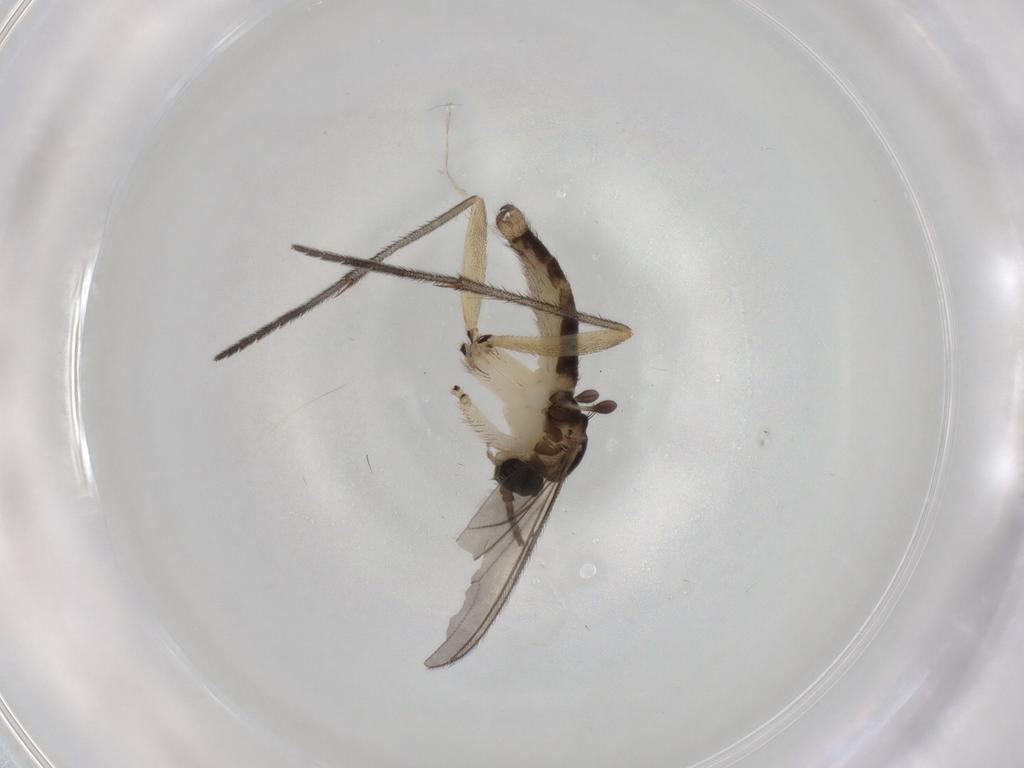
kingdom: Animalia
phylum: Arthropoda
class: Insecta
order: Diptera
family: Sciaridae
